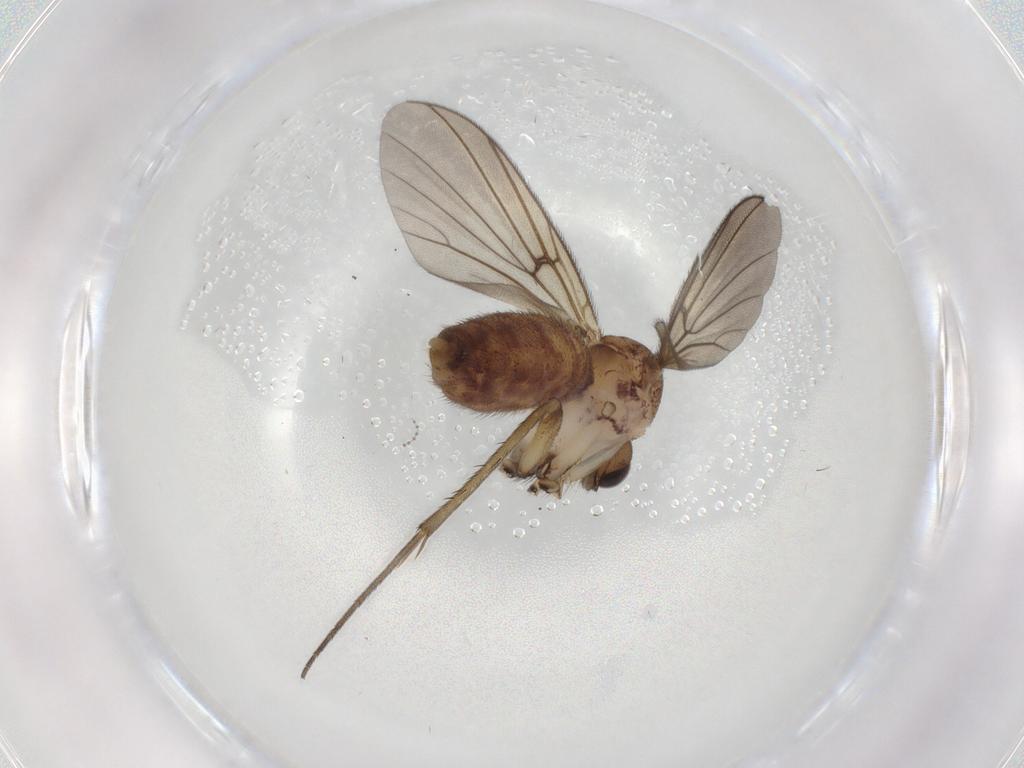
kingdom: Animalia
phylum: Arthropoda
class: Insecta
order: Diptera
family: Mycetophilidae
